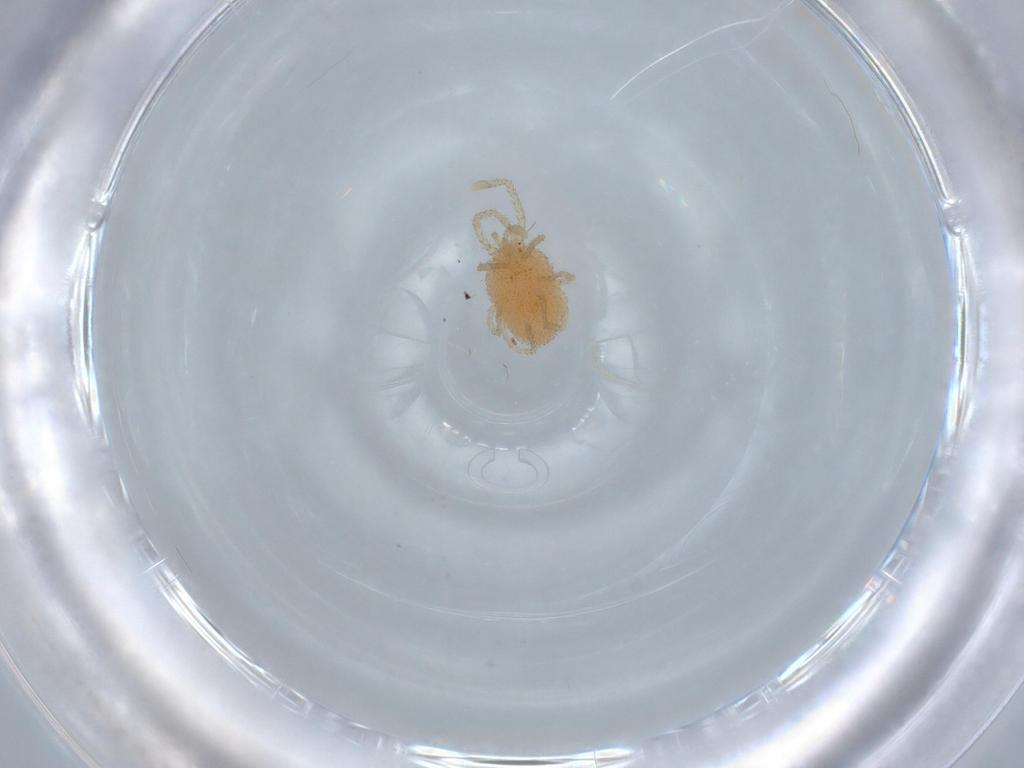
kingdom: Animalia
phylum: Arthropoda
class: Arachnida
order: Trombidiformes
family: Erythraeidae
